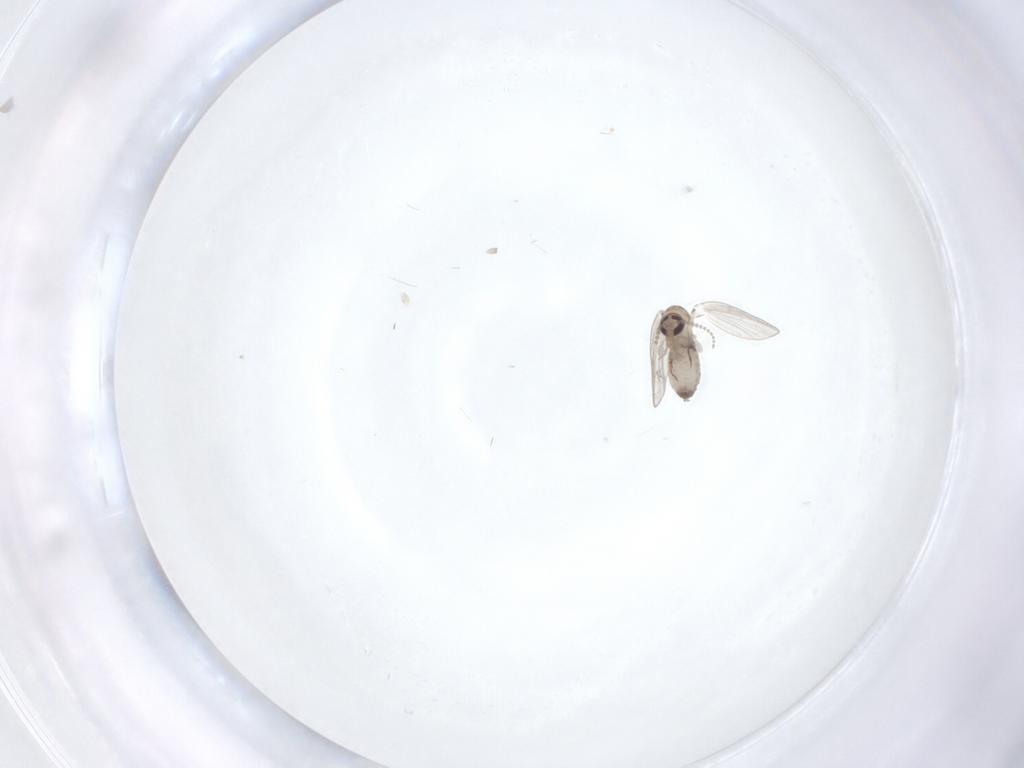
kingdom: Animalia
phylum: Arthropoda
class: Insecta
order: Diptera
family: Psychodidae
